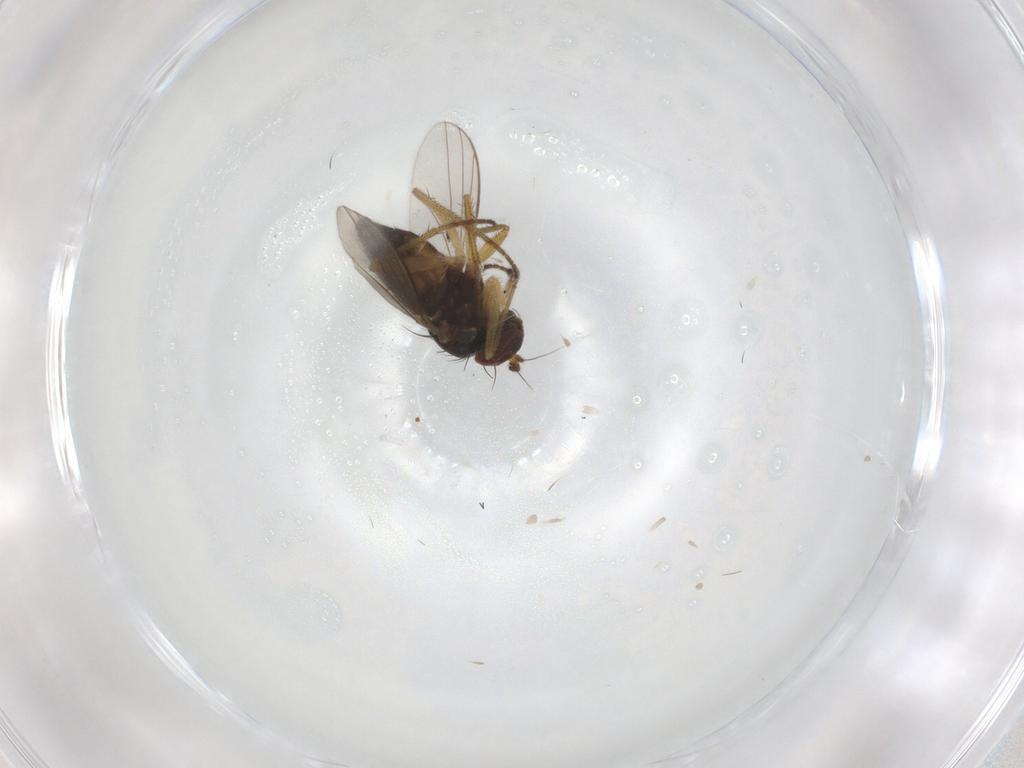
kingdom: Animalia
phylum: Arthropoda
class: Insecta
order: Diptera
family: Dolichopodidae
